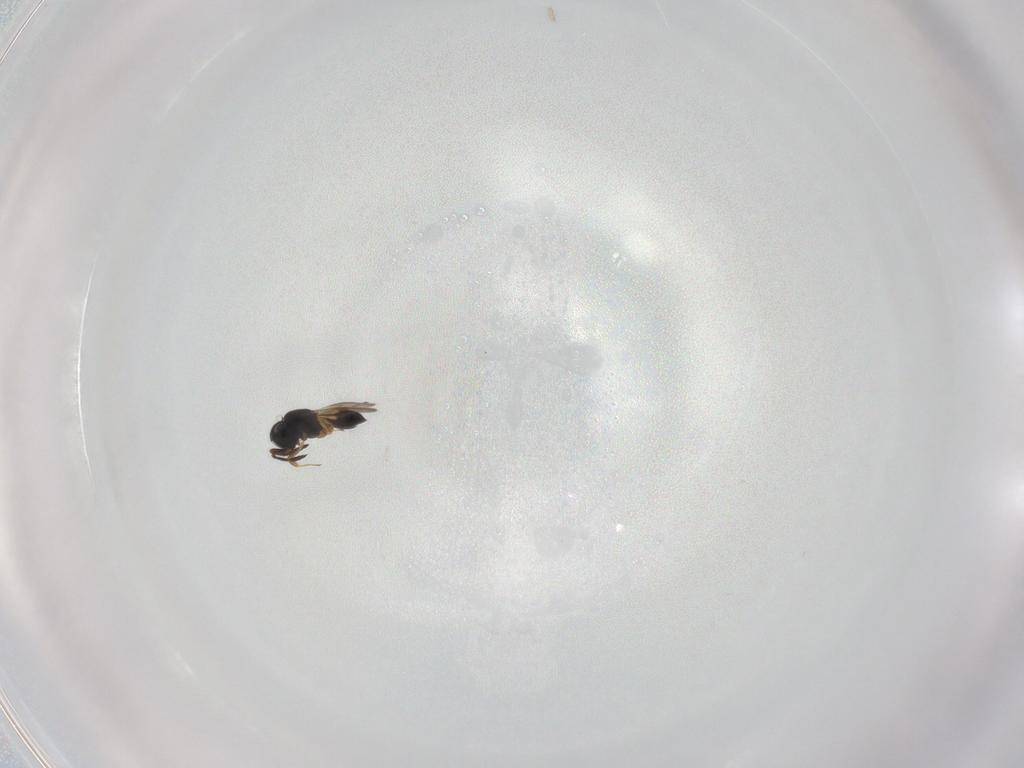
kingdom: Animalia
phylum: Arthropoda
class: Insecta
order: Hymenoptera
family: Scelionidae
